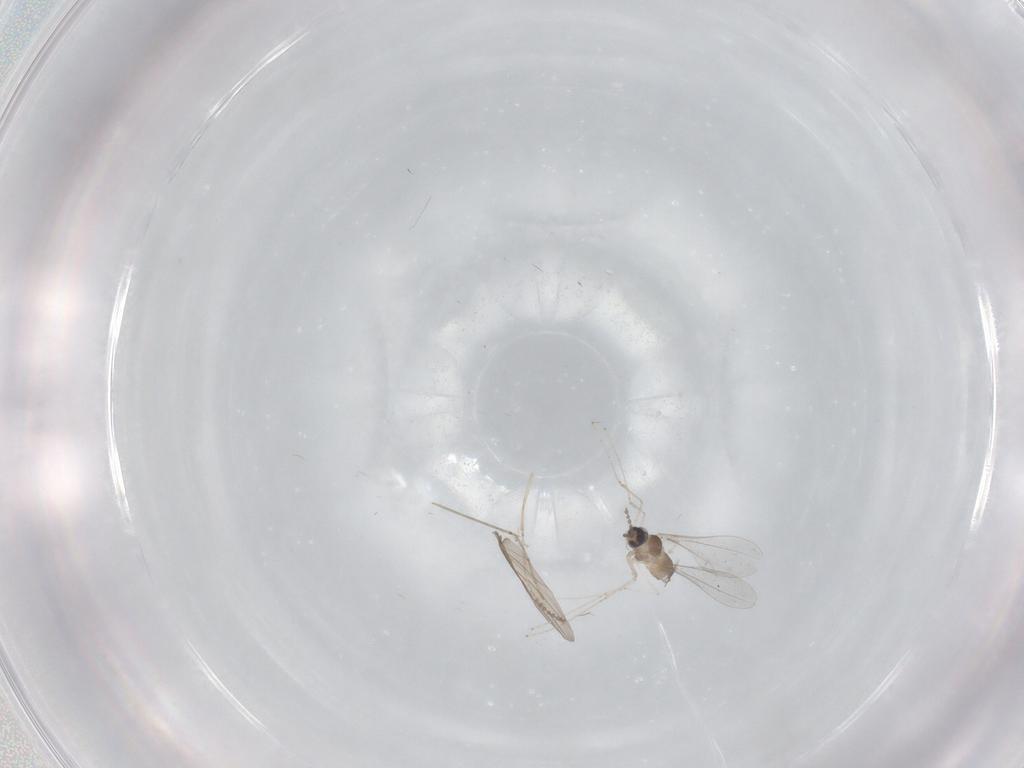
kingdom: Animalia
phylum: Arthropoda
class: Insecta
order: Diptera
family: Cecidomyiidae
